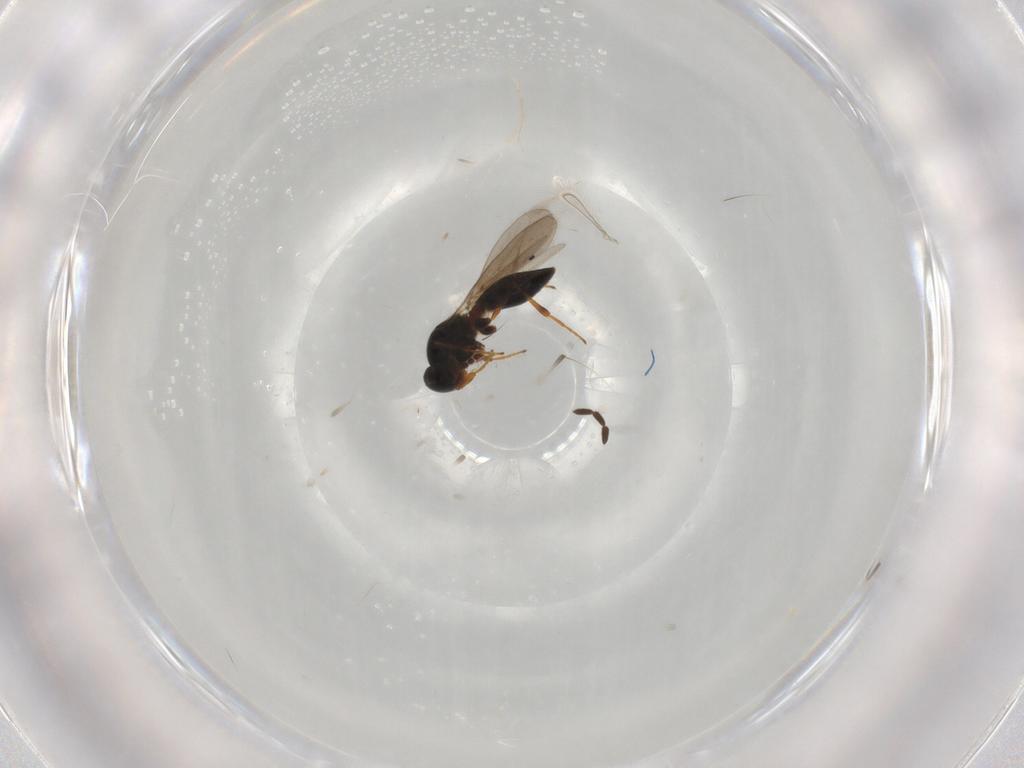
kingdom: Animalia
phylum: Arthropoda
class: Insecta
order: Hymenoptera
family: Platygastridae
